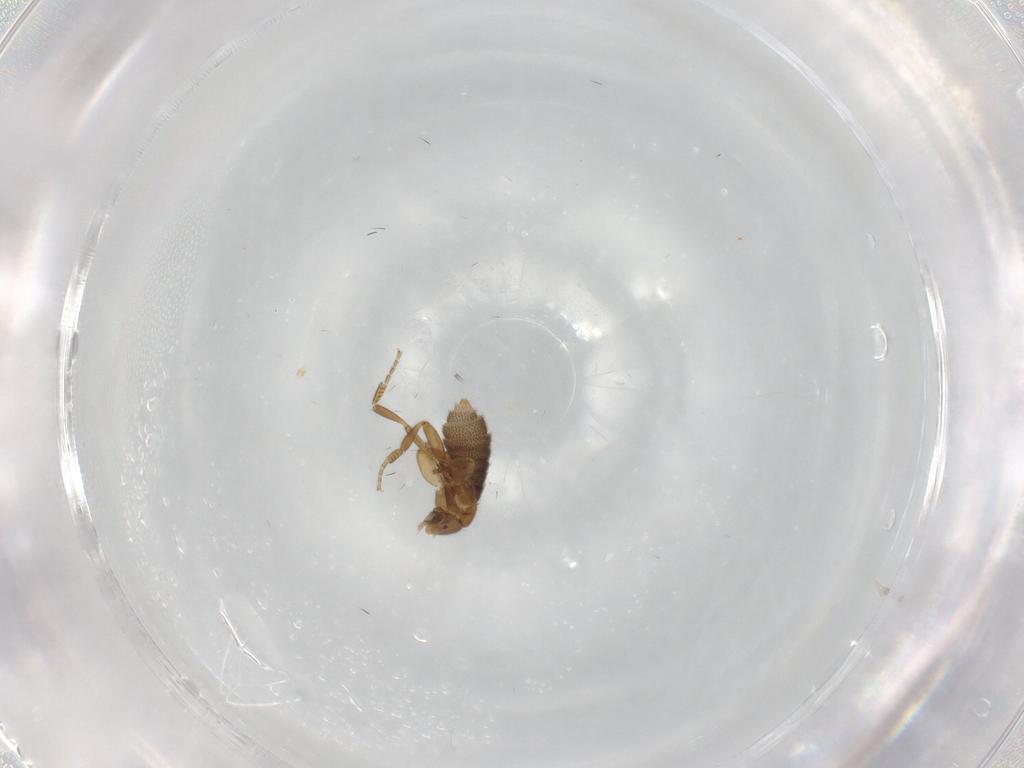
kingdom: Animalia
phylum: Arthropoda
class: Insecta
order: Diptera
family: Phoridae
